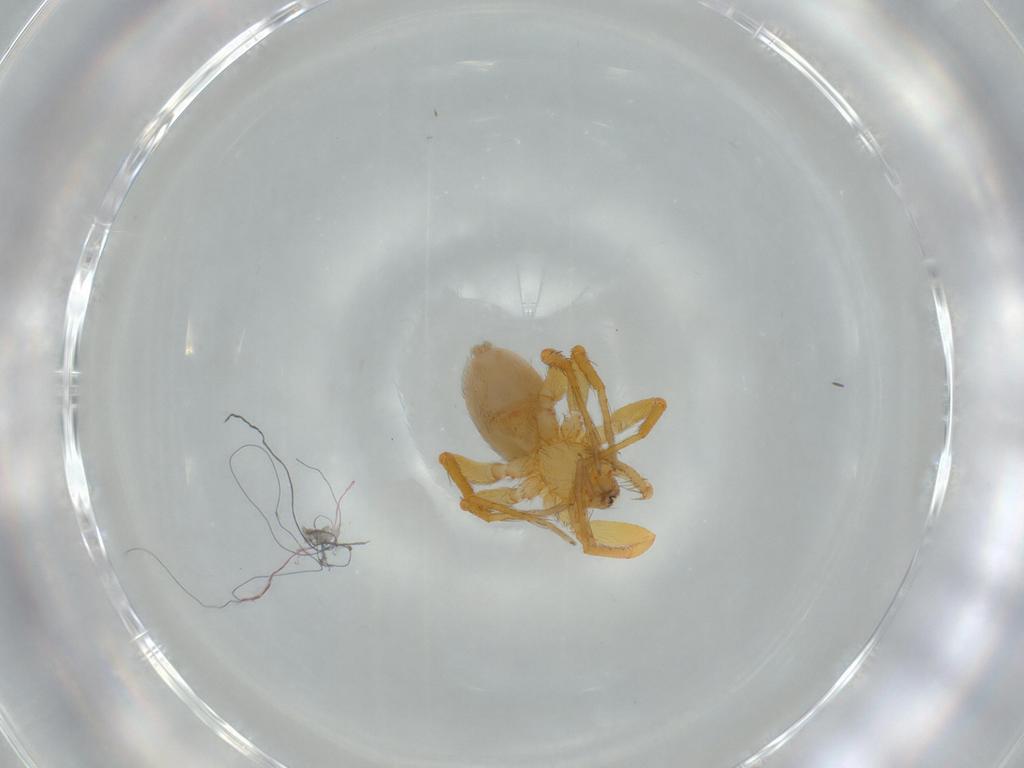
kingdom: Animalia
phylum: Arthropoda
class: Arachnida
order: Araneae
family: Oonopidae
